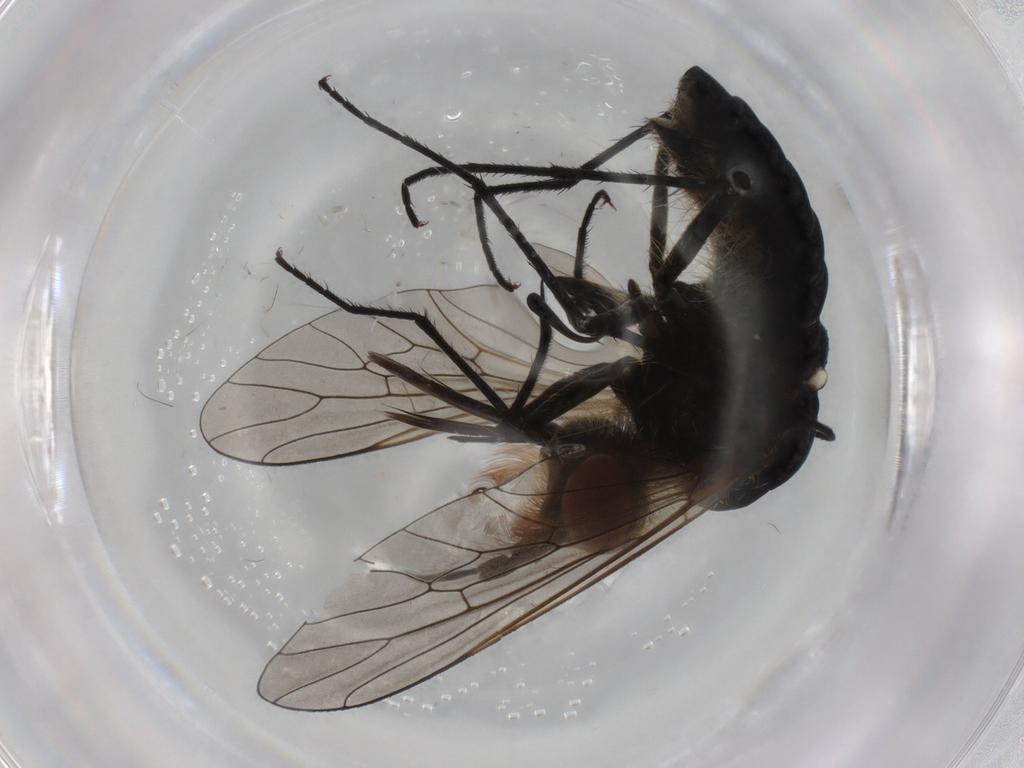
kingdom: Animalia
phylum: Arthropoda
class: Insecta
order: Diptera
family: Bombyliidae
